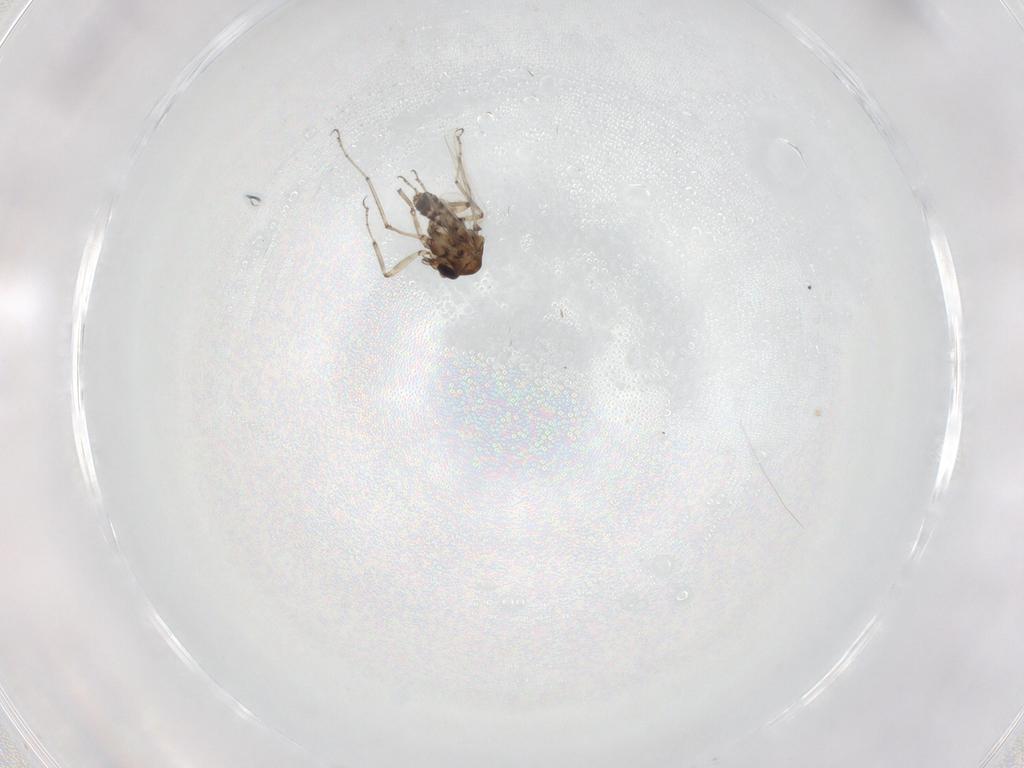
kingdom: Animalia
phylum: Arthropoda
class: Insecta
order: Diptera
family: Ceratopogonidae
